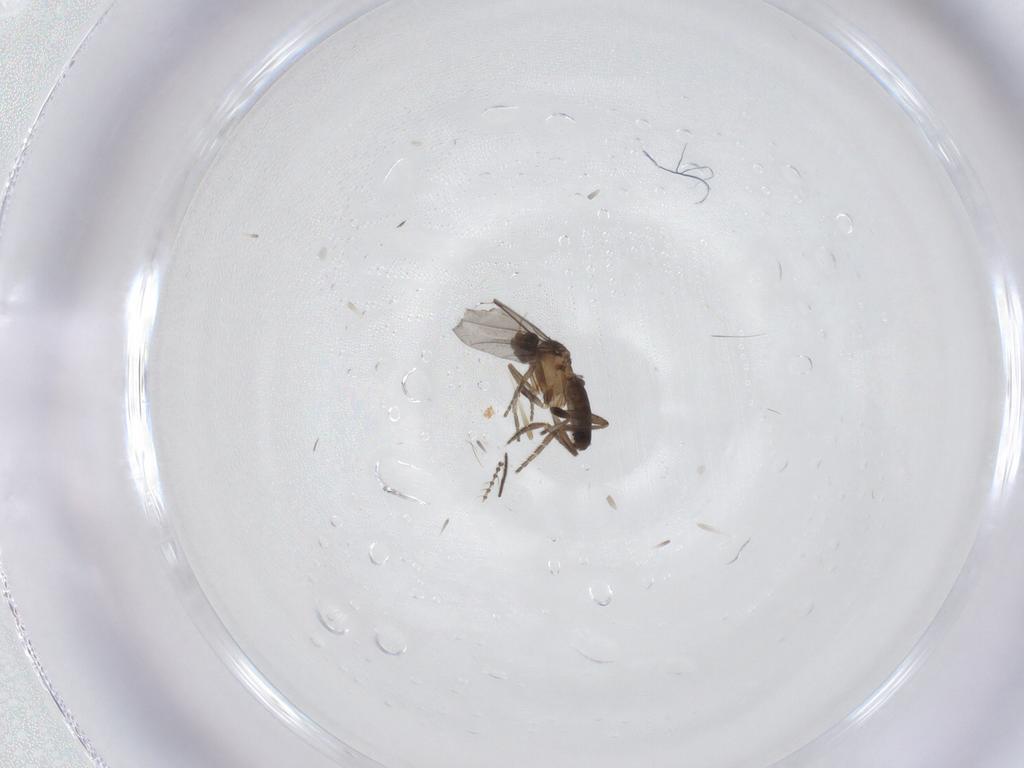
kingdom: Animalia
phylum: Arthropoda
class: Insecta
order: Diptera
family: Phoridae
